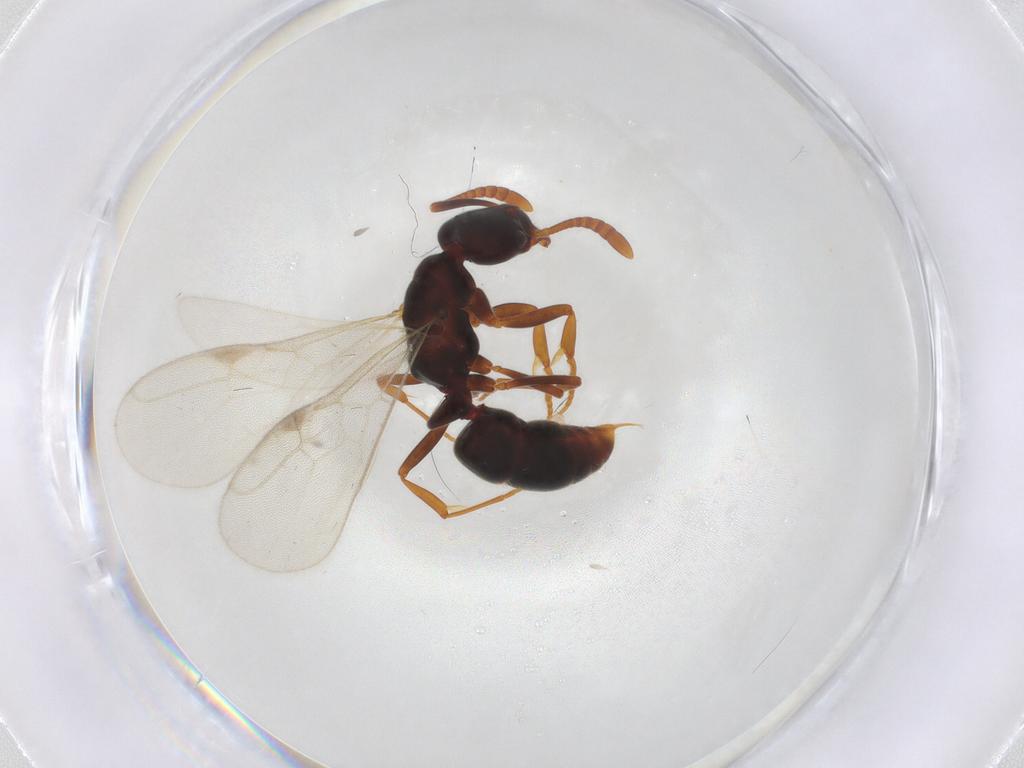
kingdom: Animalia
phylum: Arthropoda
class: Insecta
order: Hymenoptera
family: Formicidae
